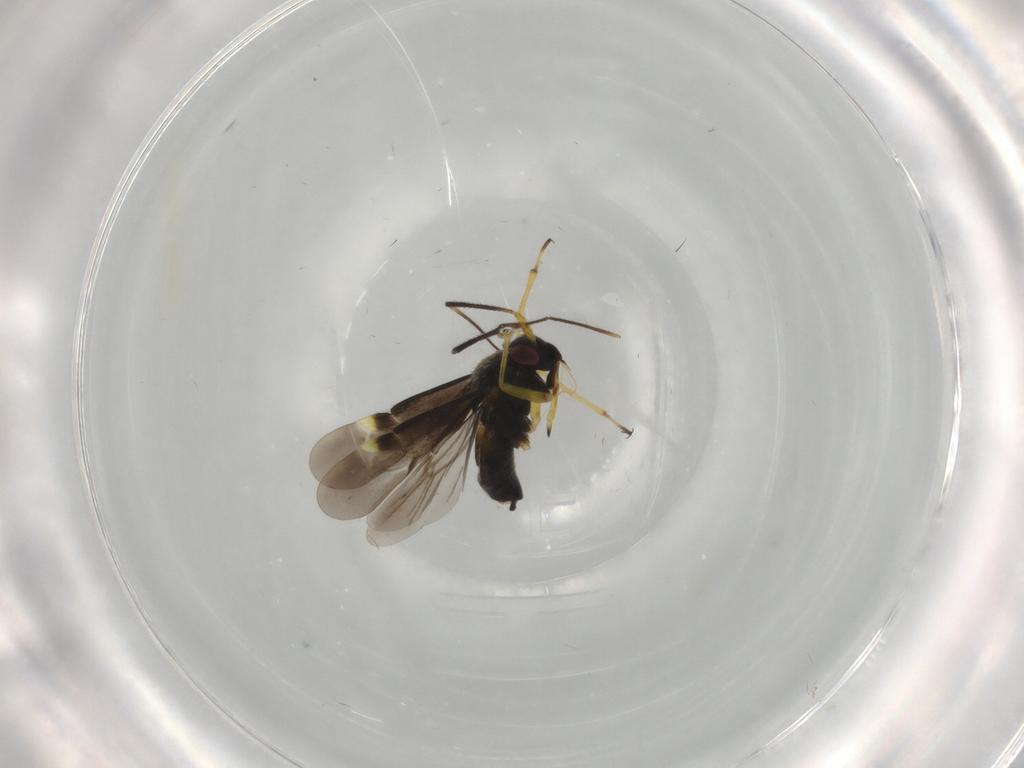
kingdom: Animalia
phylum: Arthropoda
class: Insecta
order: Hemiptera
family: Miridae
